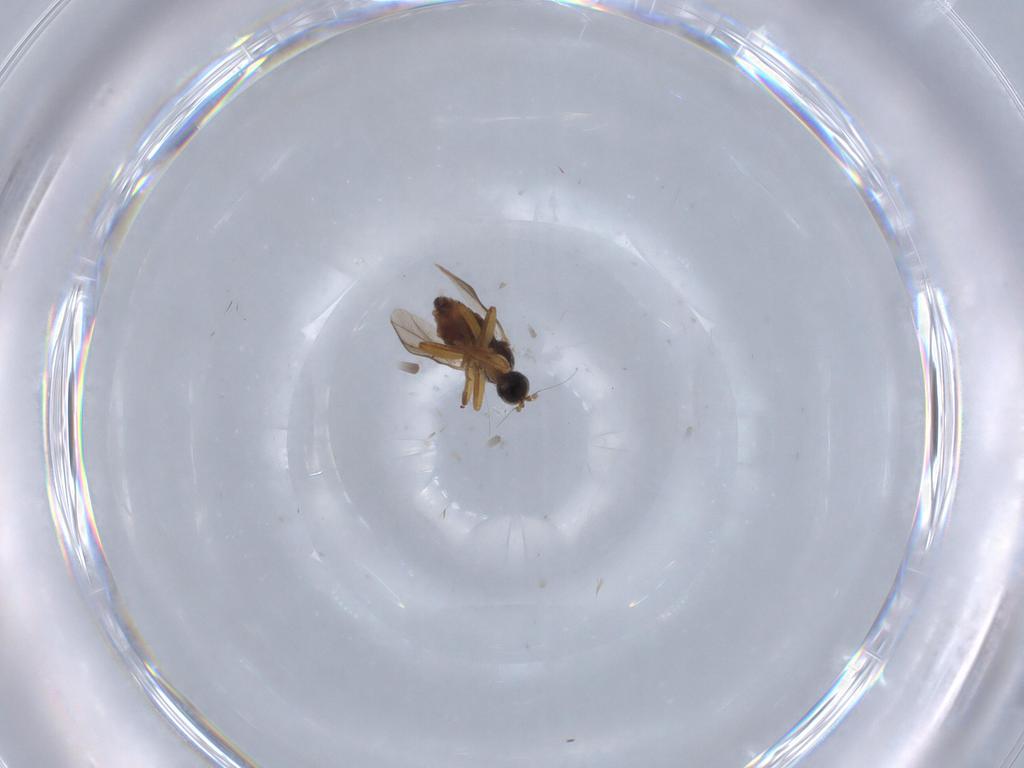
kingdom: Animalia
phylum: Arthropoda
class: Insecta
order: Diptera
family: Hybotidae
